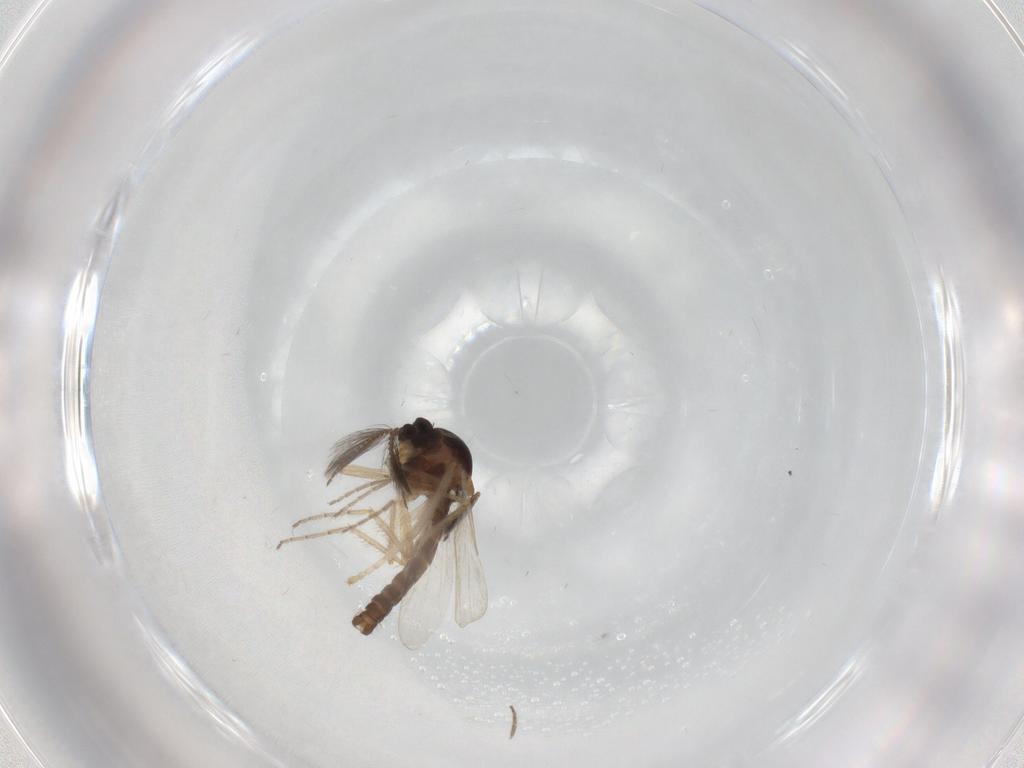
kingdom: Animalia
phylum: Arthropoda
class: Insecta
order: Diptera
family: Ceratopogonidae
